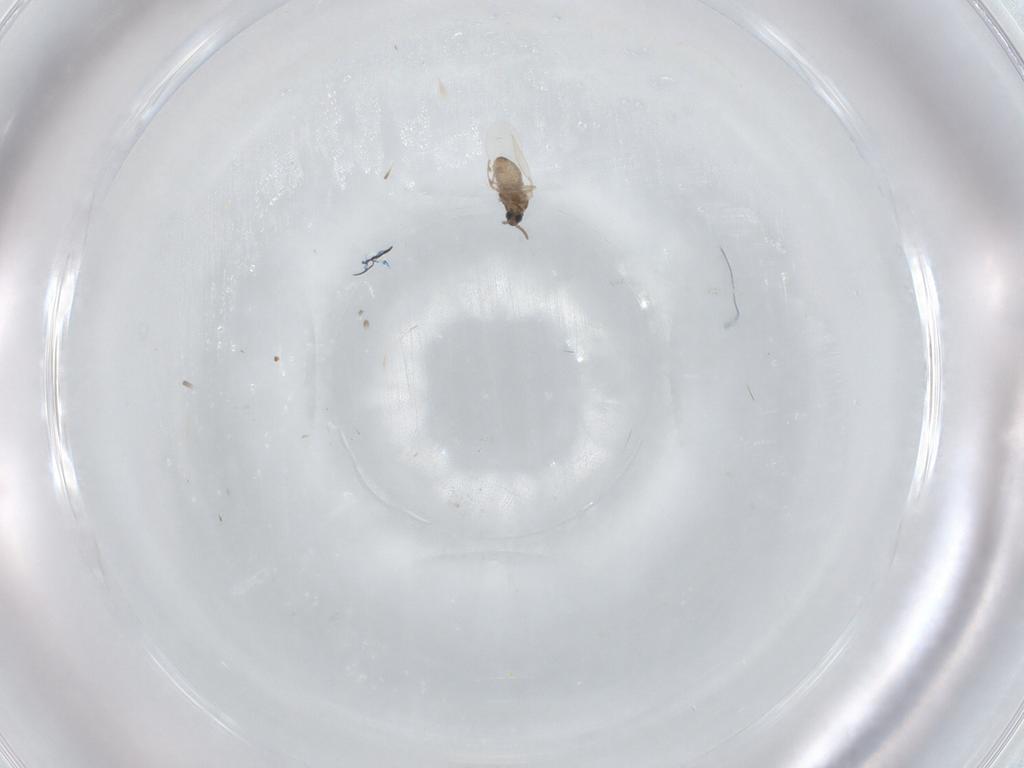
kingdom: Animalia
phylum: Arthropoda
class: Insecta
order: Diptera
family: Cecidomyiidae
